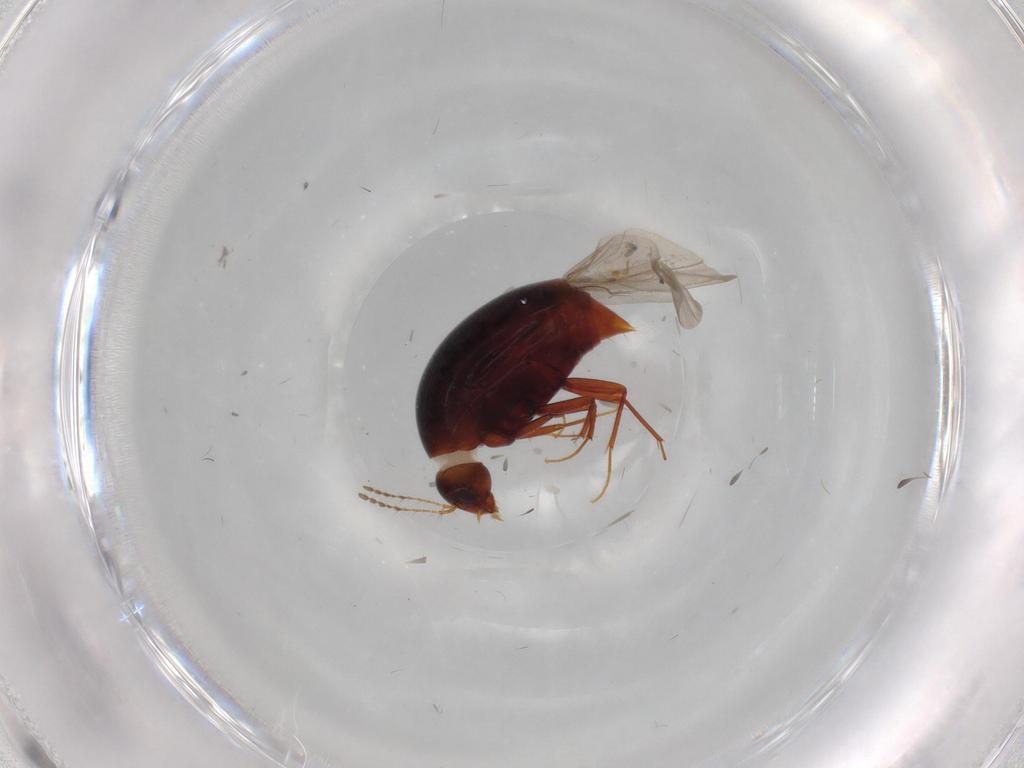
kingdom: Animalia
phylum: Arthropoda
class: Insecta
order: Coleoptera
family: Staphylinidae
